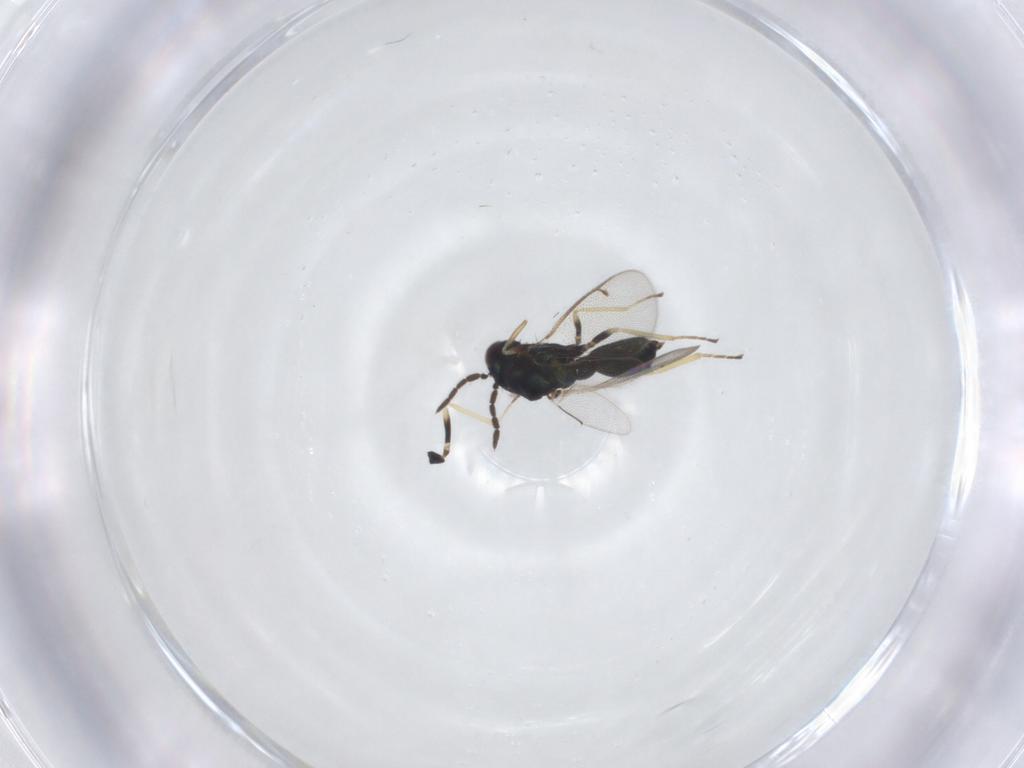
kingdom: Animalia
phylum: Arthropoda
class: Insecta
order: Hymenoptera
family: Eulophidae
